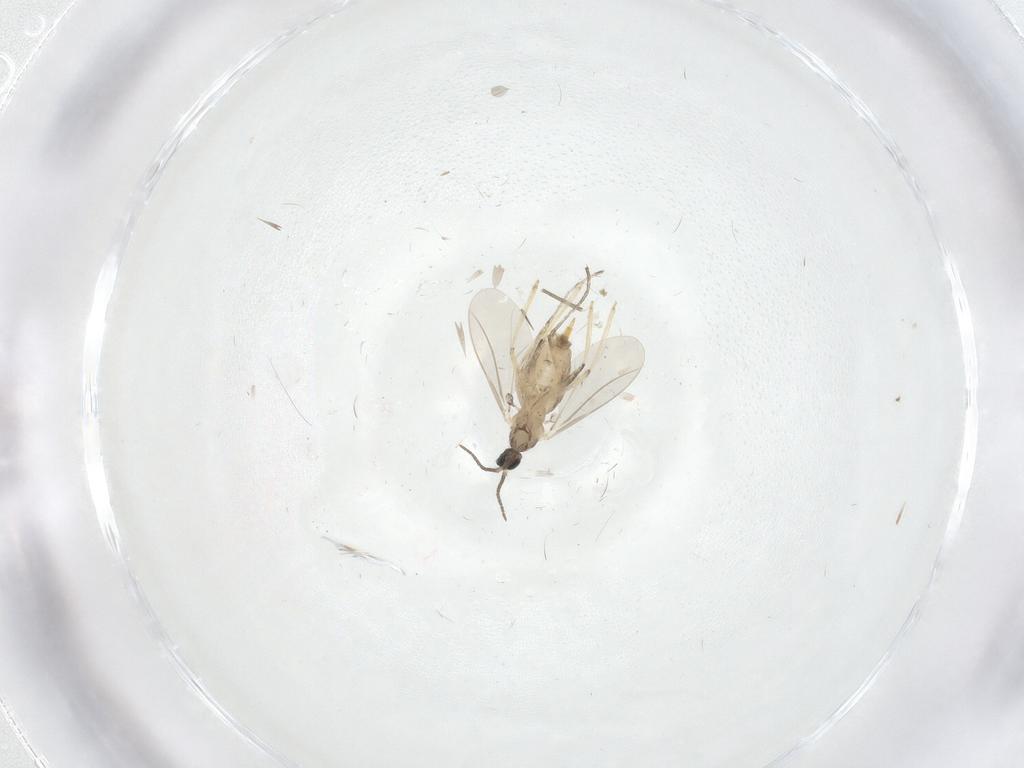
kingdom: Animalia
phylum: Arthropoda
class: Insecta
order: Diptera
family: Cecidomyiidae
